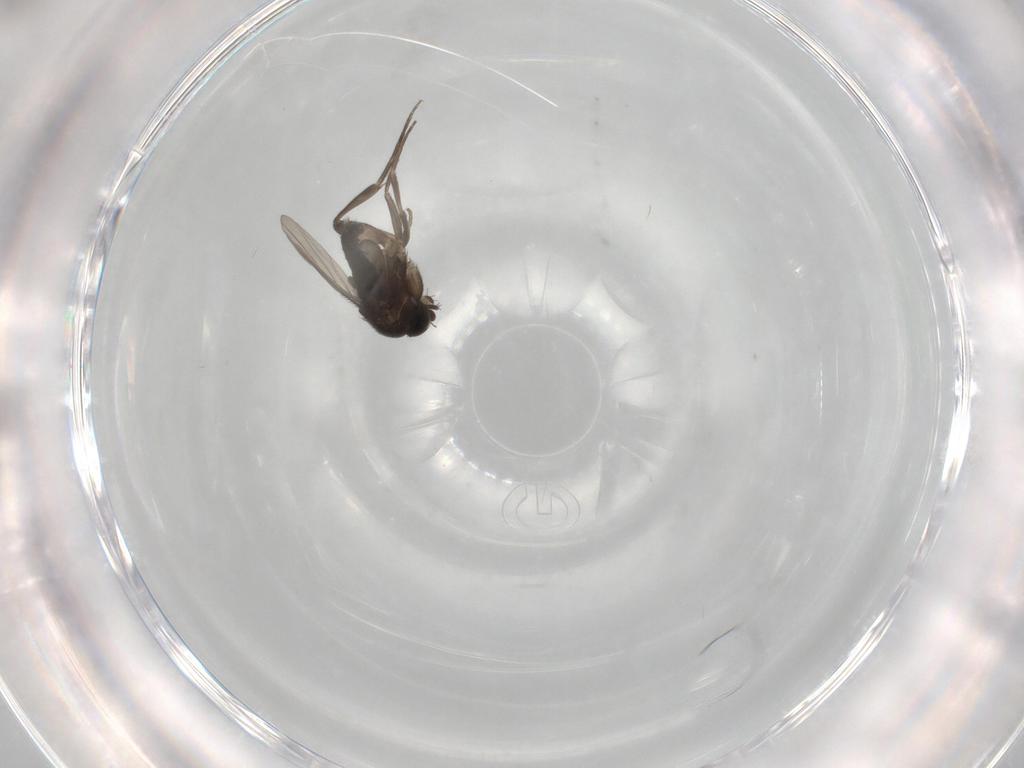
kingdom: Animalia
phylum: Arthropoda
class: Insecta
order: Diptera
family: Phoridae
